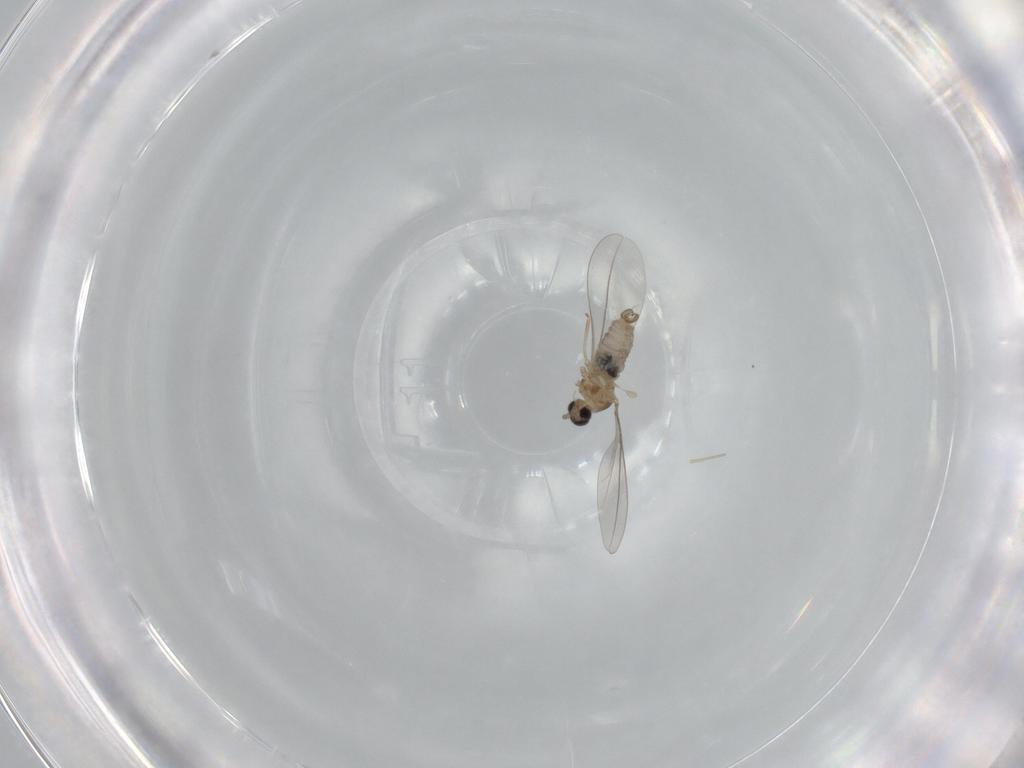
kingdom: Animalia
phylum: Arthropoda
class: Insecta
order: Diptera
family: Cecidomyiidae
